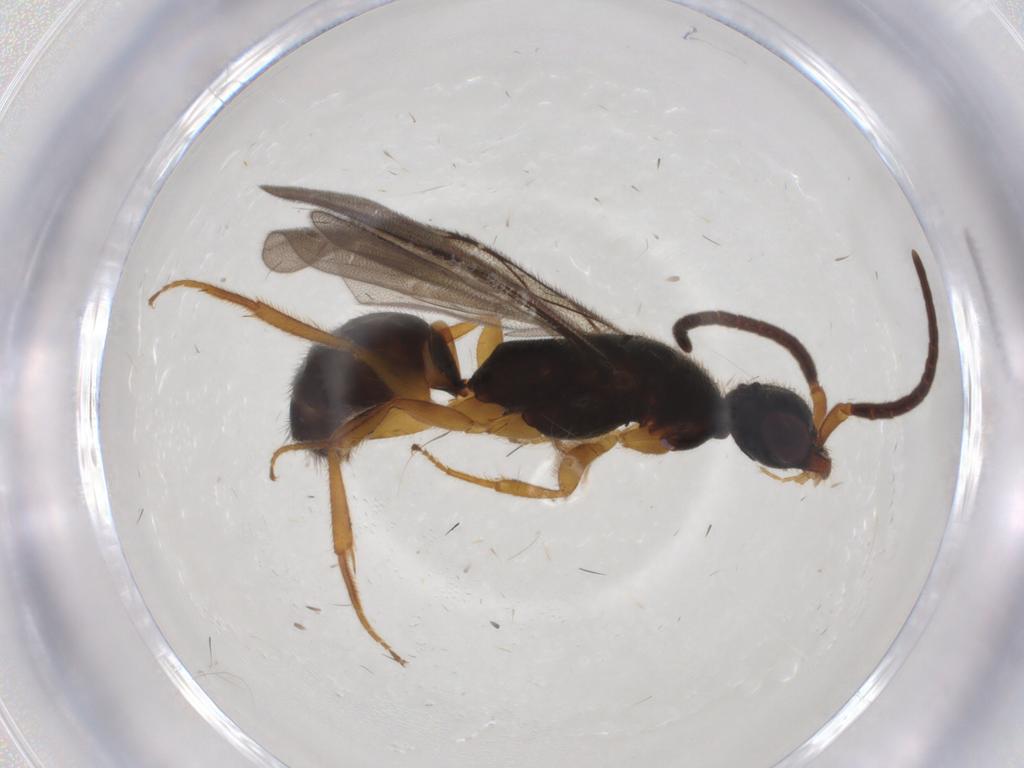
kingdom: Animalia
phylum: Arthropoda
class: Insecta
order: Hymenoptera
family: Bethylidae
